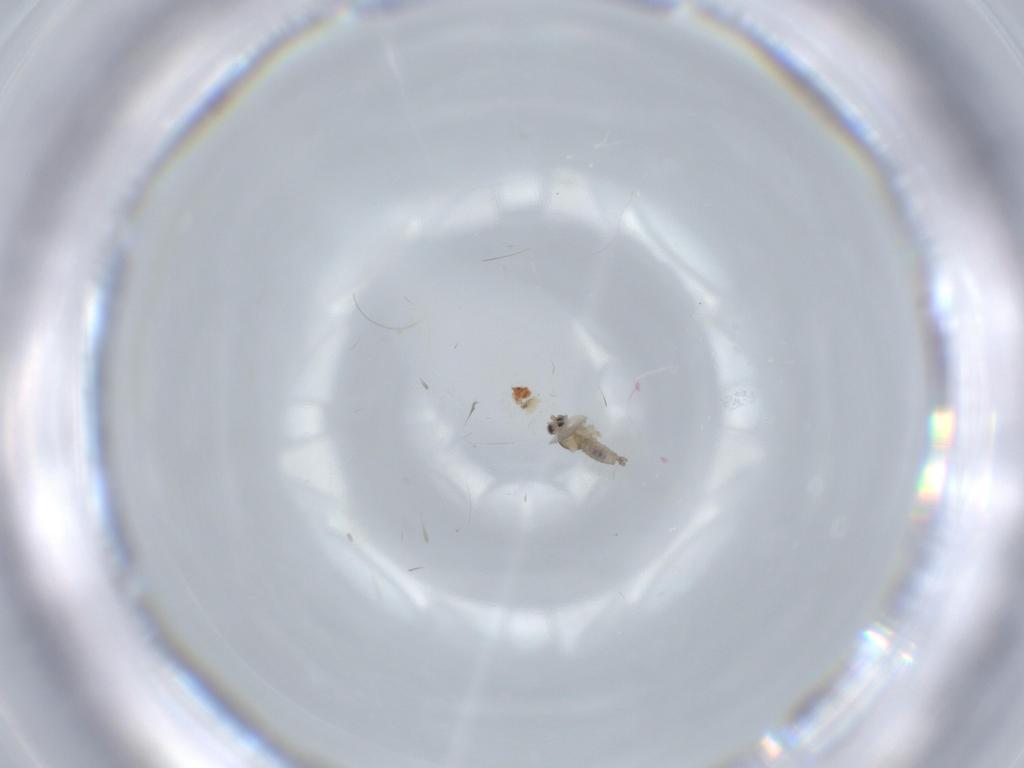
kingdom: Animalia
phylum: Arthropoda
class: Insecta
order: Diptera
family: Cecidomyiidae
